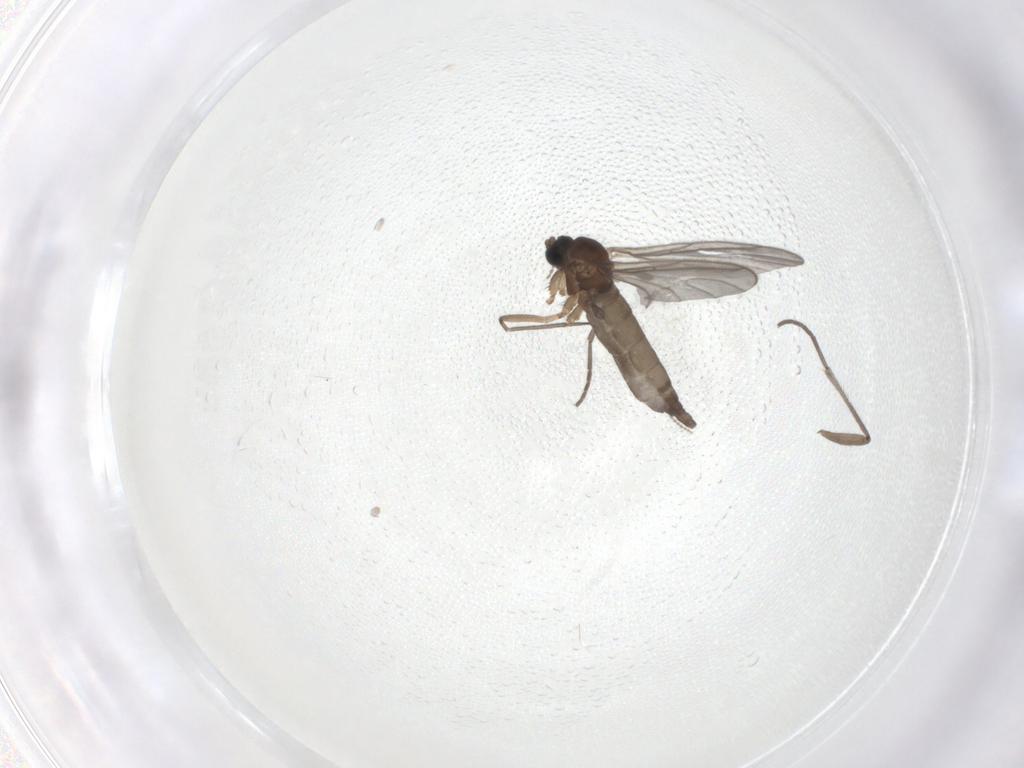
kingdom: Animalia
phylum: Arthropoda
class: Insecta
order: Diptera
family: Ceratopogonidae
